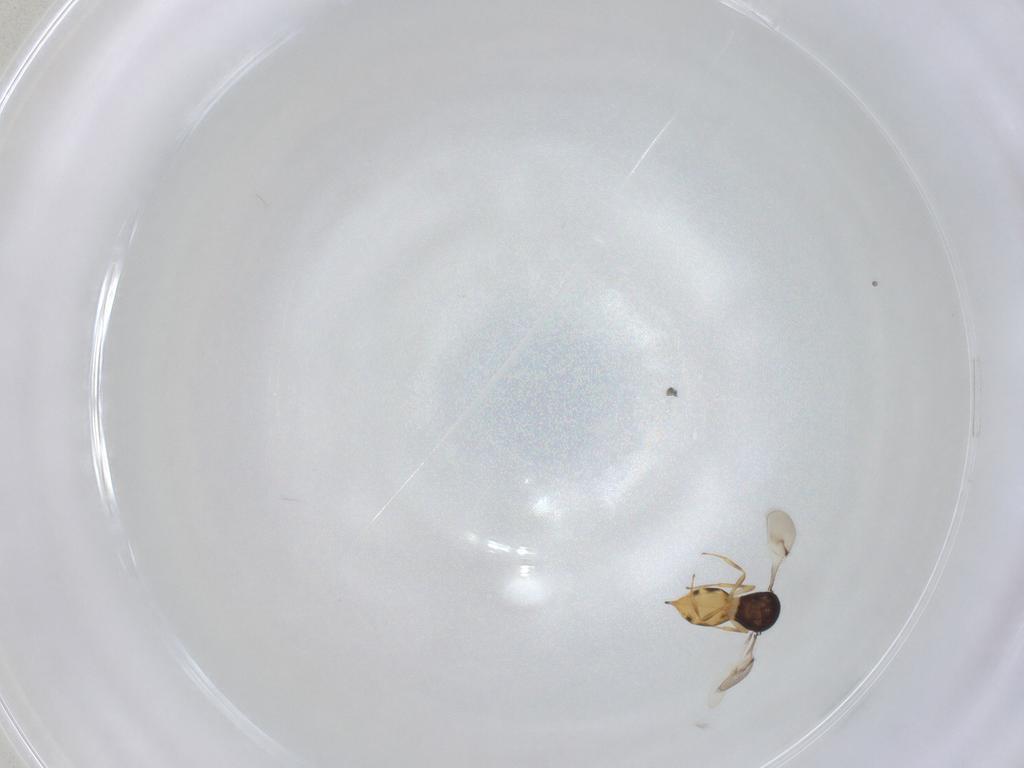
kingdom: Animalia
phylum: Arthropoda
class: Insecta
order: Hymenoptera
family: Scelionidae
